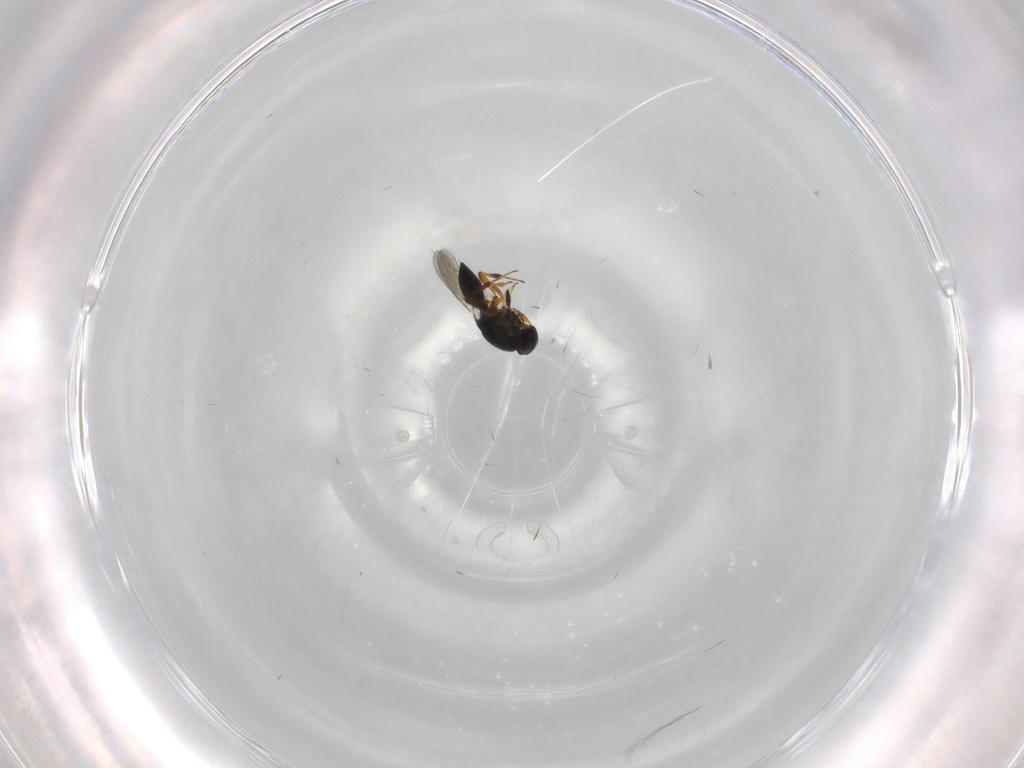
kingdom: Animalia
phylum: Arthropoda
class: Insecta
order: Hymenoptera
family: Platygastridae
